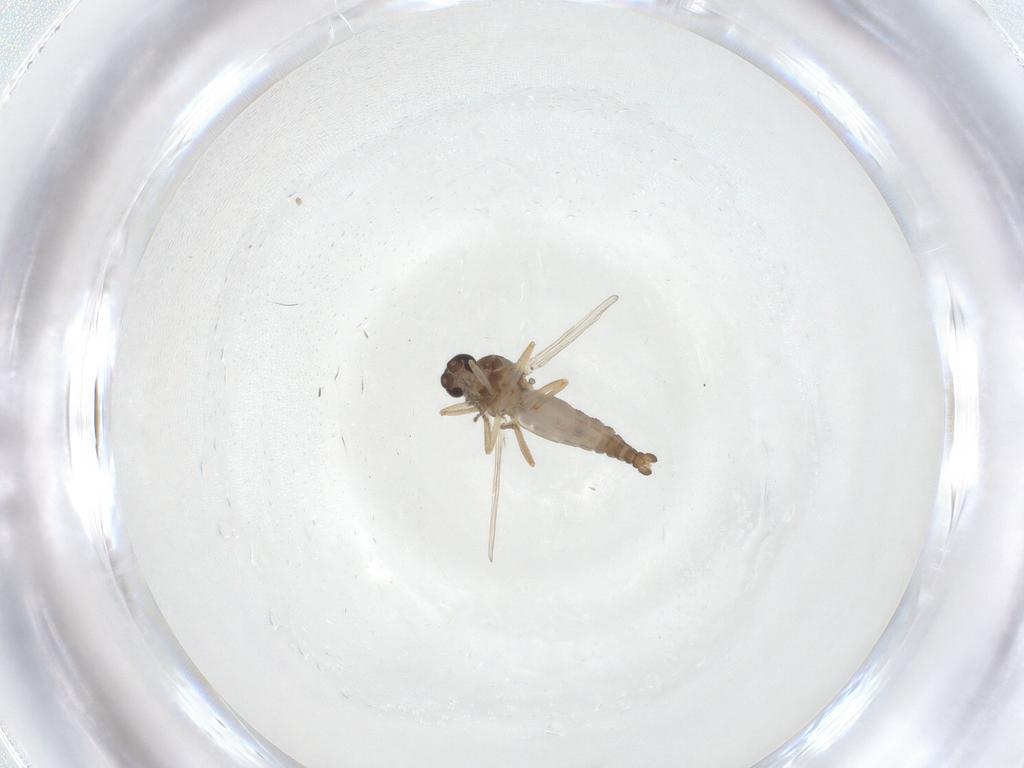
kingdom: Animalia
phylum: Arthropoda
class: Insecta
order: Diptera
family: Ceratopogonidae
